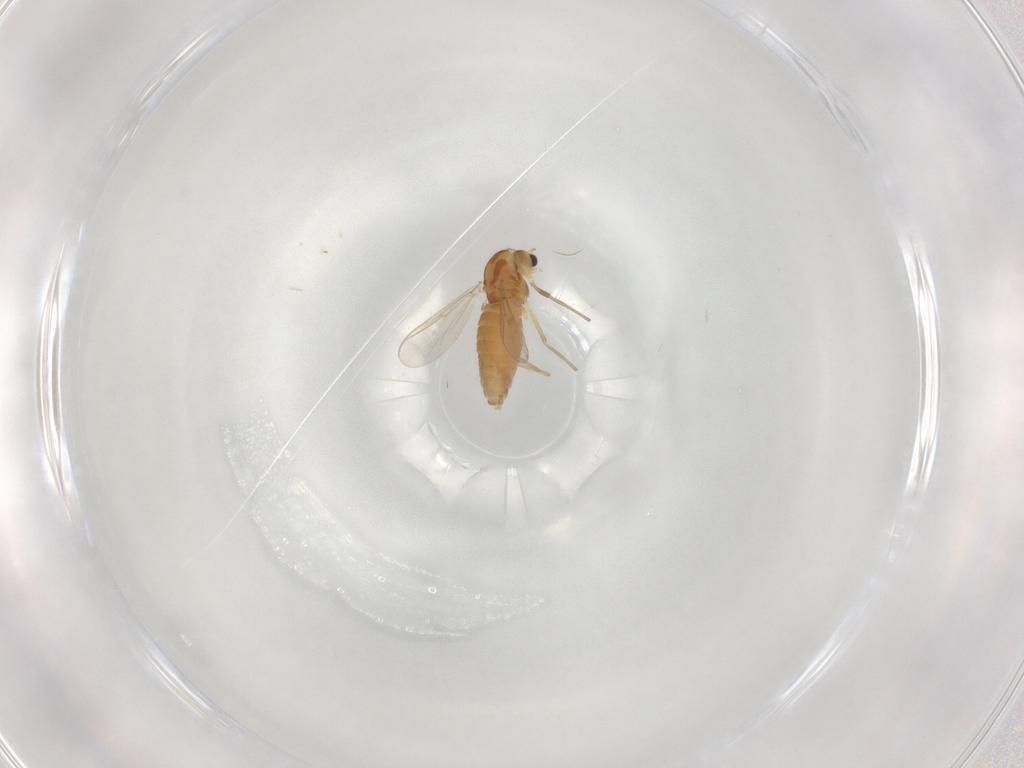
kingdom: Animalia
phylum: Arthropoda
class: Insecta
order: Diptera
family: Chironomidae
